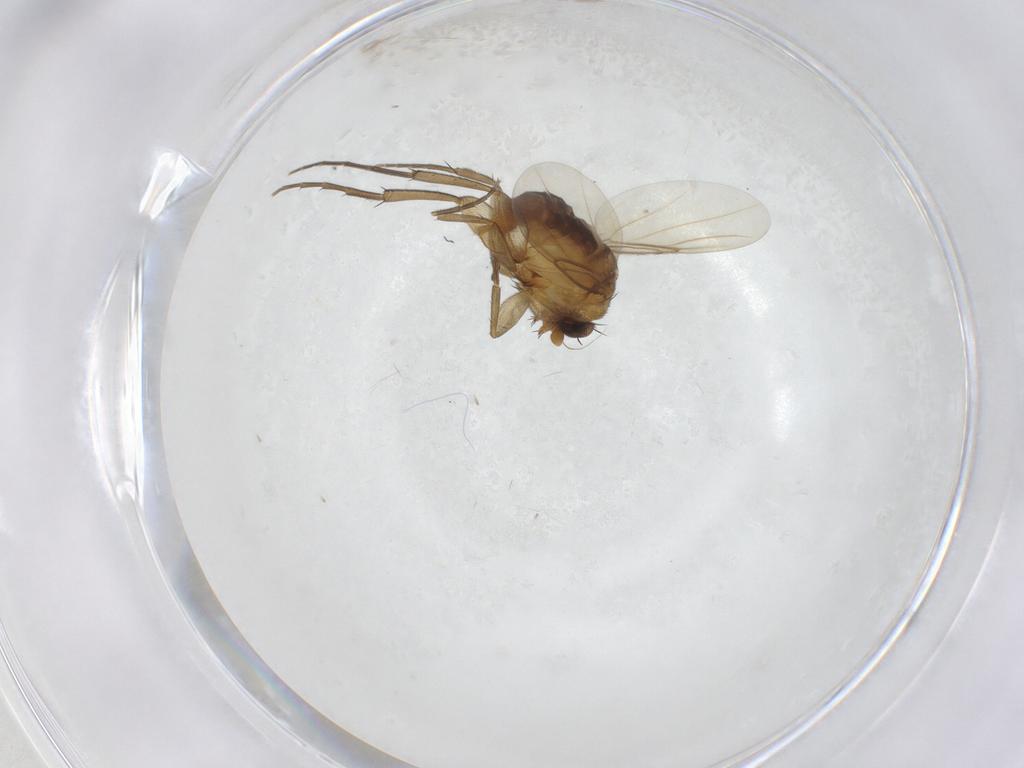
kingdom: Animalia
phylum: Arthropoda
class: Insecta
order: Diptera
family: Phoridae
